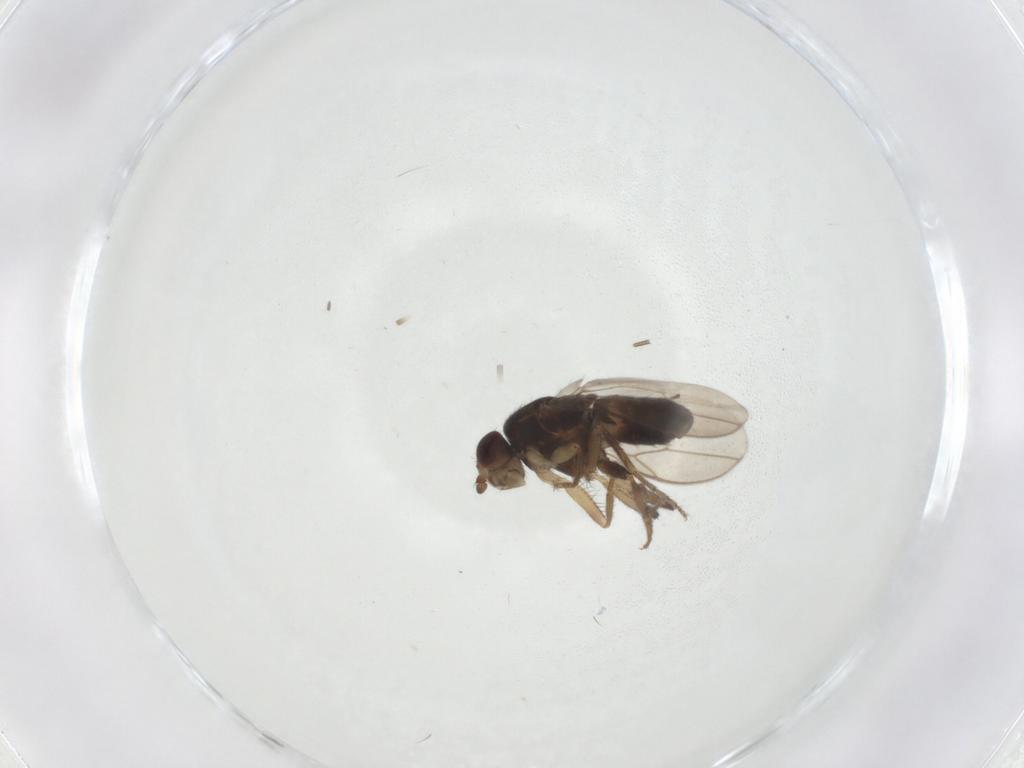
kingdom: Animalia
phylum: Arthropoda
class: Insecta
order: Diptera
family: Sphaeroceridae
